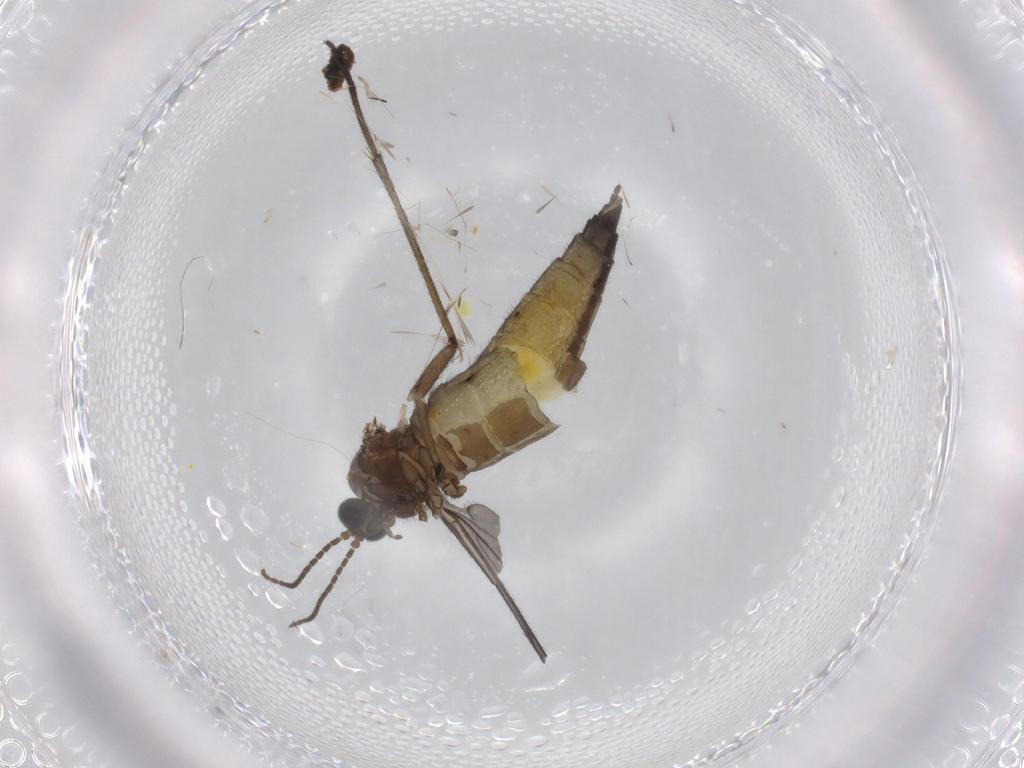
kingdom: Animalia
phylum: Arthropoda
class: Insecta
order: Diptera
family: Sciaridae
